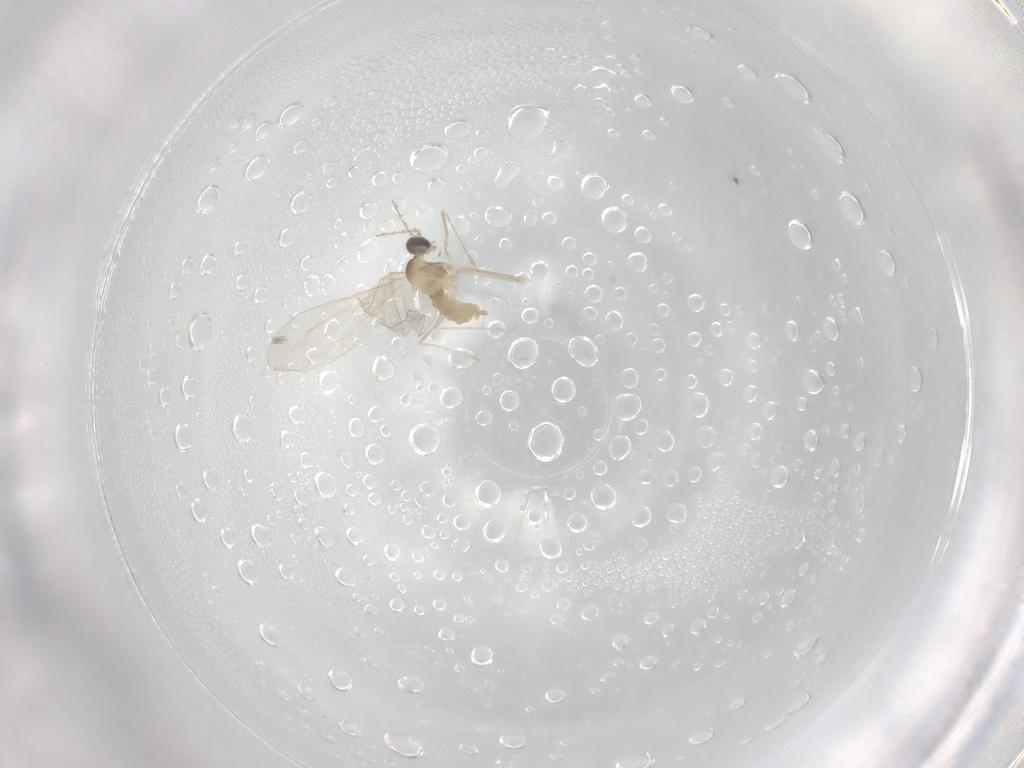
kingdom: Animalia
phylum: Arthropoda
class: Insecta
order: Diptera
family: Cecidomyiidae
